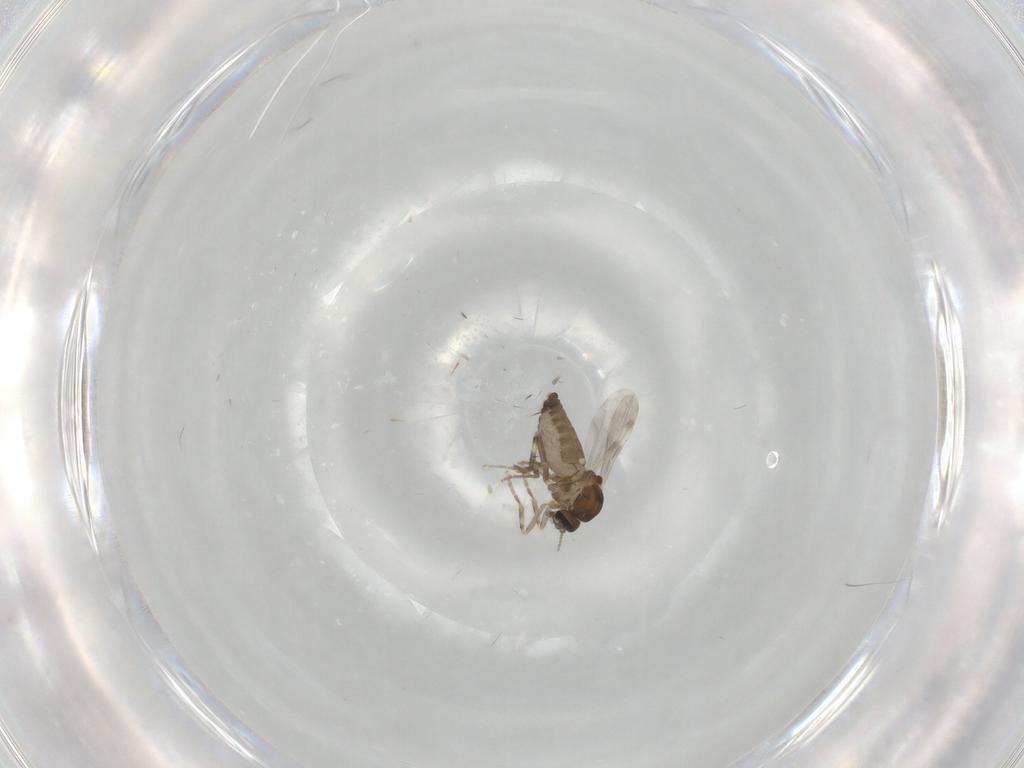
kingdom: Animalia
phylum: Arthropoda
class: Insecta
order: Diptera
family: Ceratopogonidae
